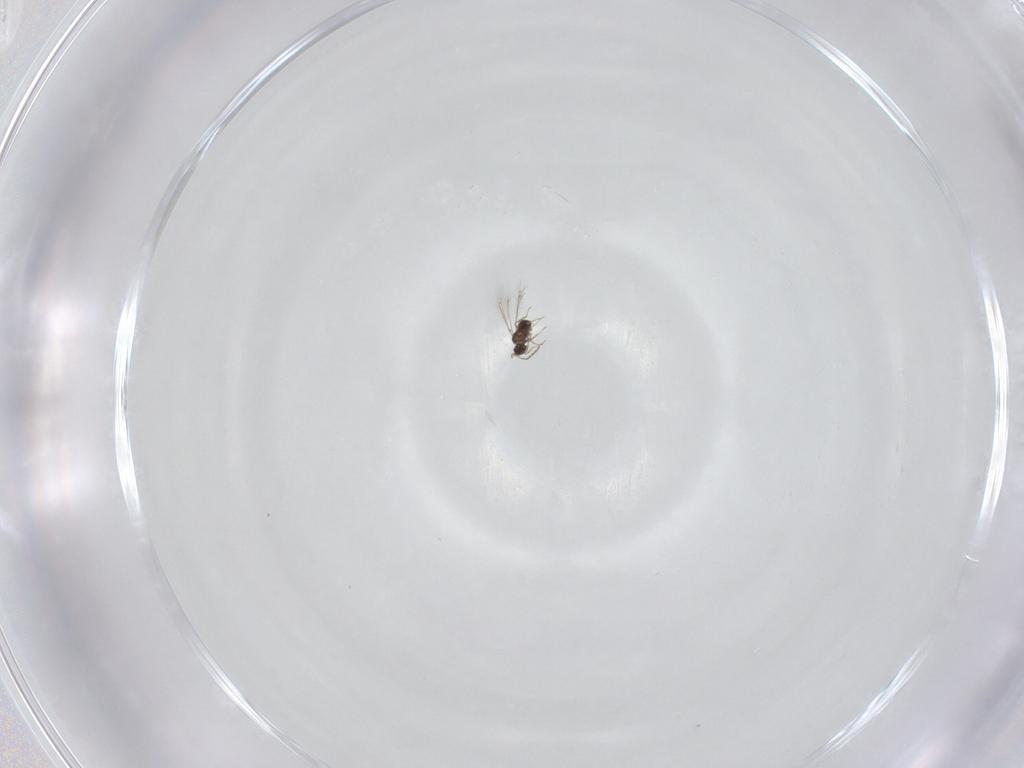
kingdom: Animalia
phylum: Arthropoda
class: Insecta
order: Hymenoptera
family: Mymaridae
